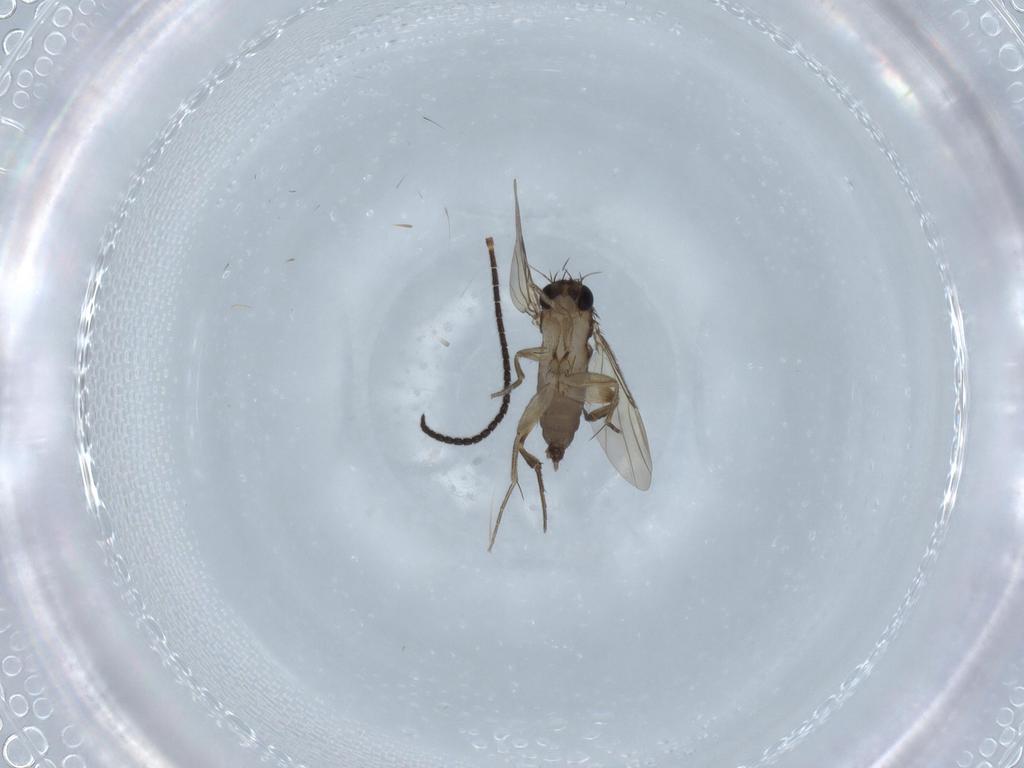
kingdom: Animalia
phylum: Arthropoda
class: Insecta
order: Diptera
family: Phoridae
